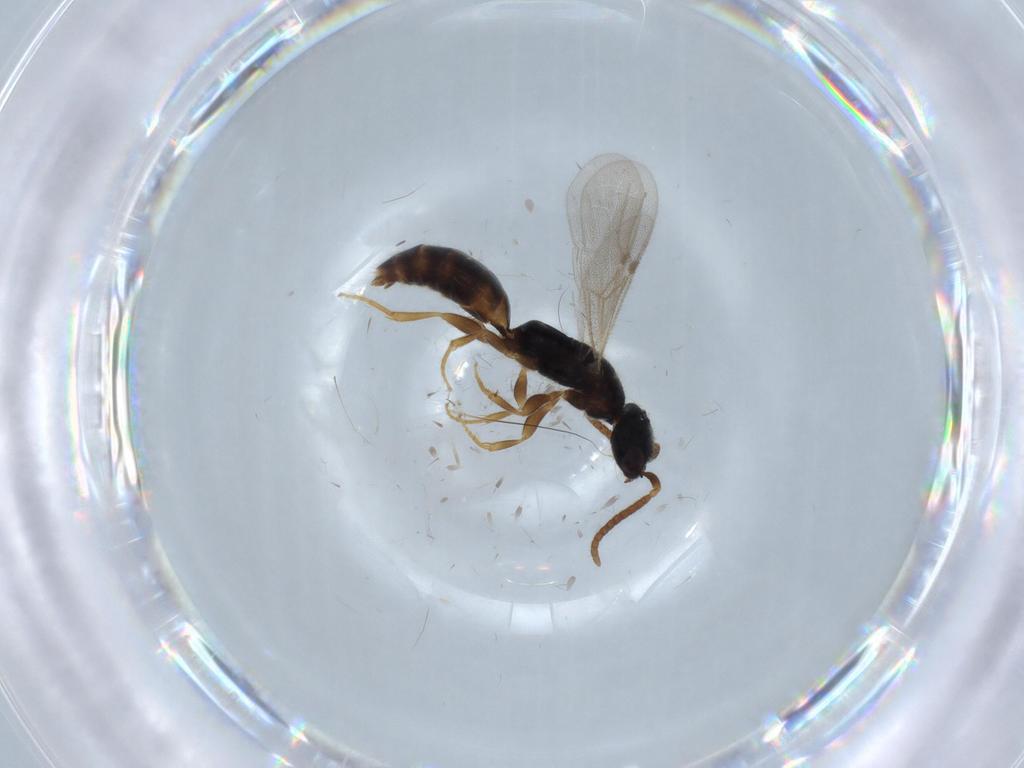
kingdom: Animalia
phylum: Arthropoda
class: Insecta
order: Hymenoptera
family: Bethylidae
